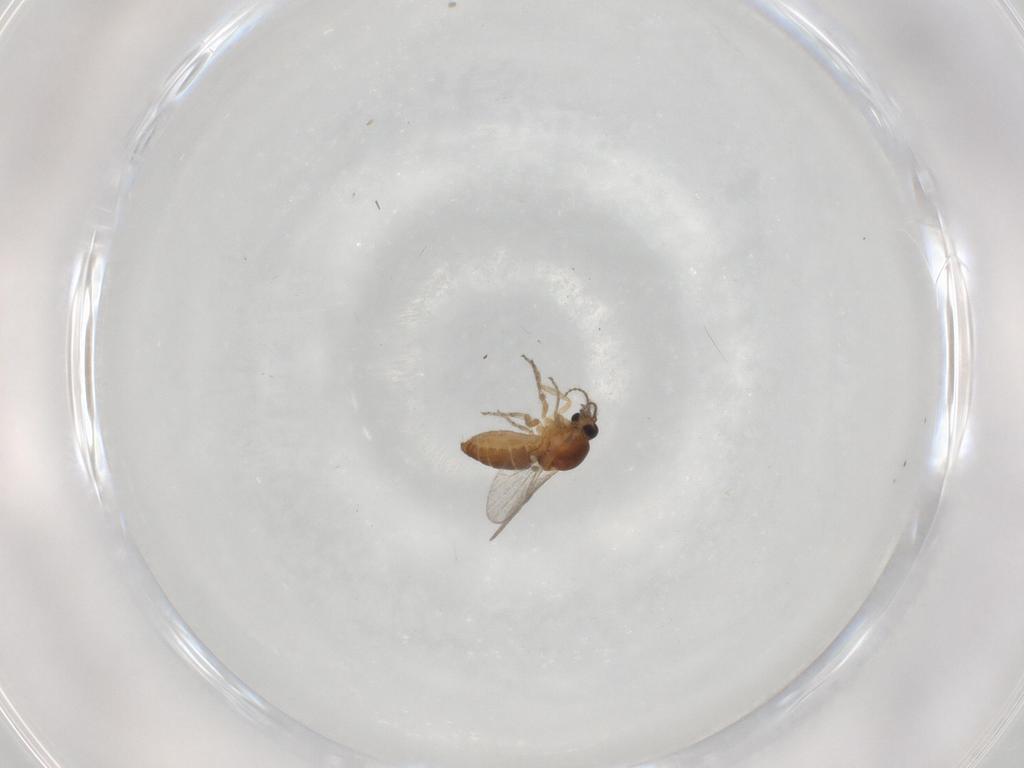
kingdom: Animalia
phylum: Arthropoda
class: Insecta
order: Diptera
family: Ceratopogonidae
